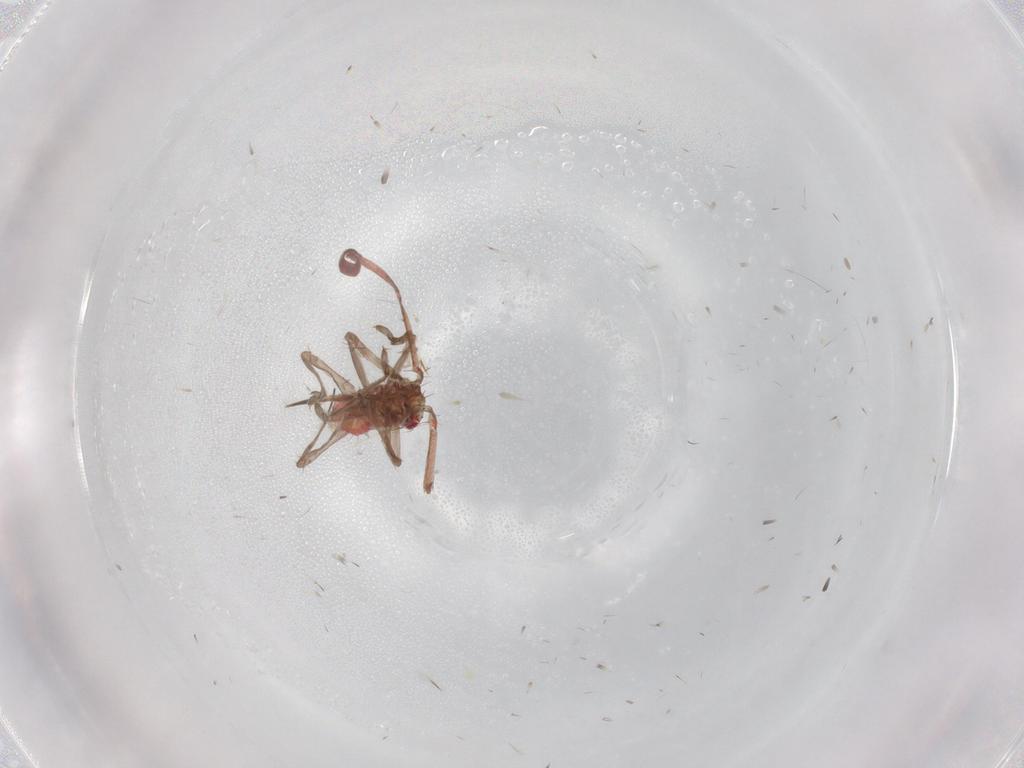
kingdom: Animalia
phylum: Arthropoda
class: Insecta
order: Hemiptera
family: Miridae
